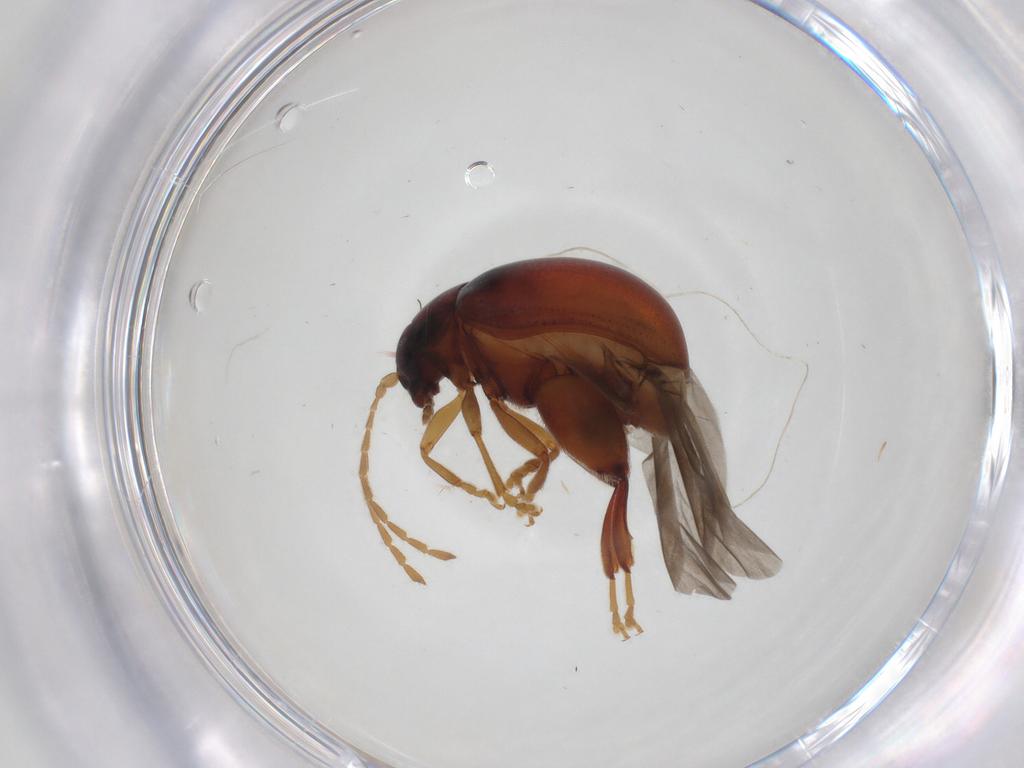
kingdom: Animalia
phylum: Arthropoda
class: Insecta
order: Coleoptera
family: Chrysomelidae
